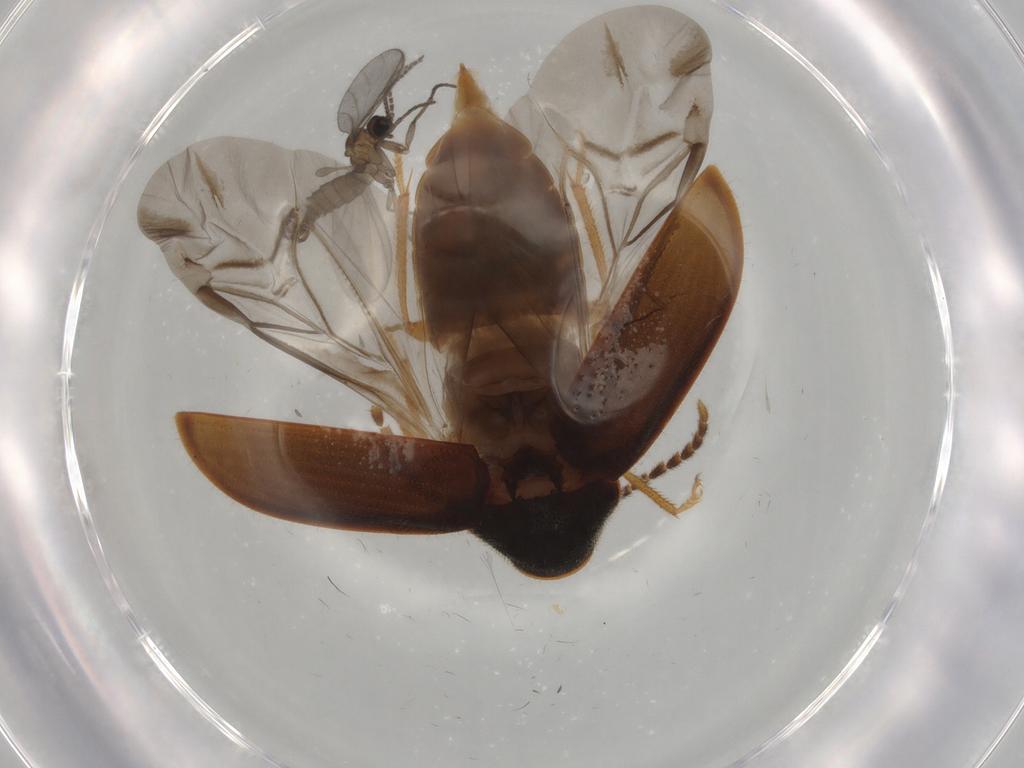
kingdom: Animalia
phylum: Arthropoda
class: Insecta
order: Diptera
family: Sciaridae
